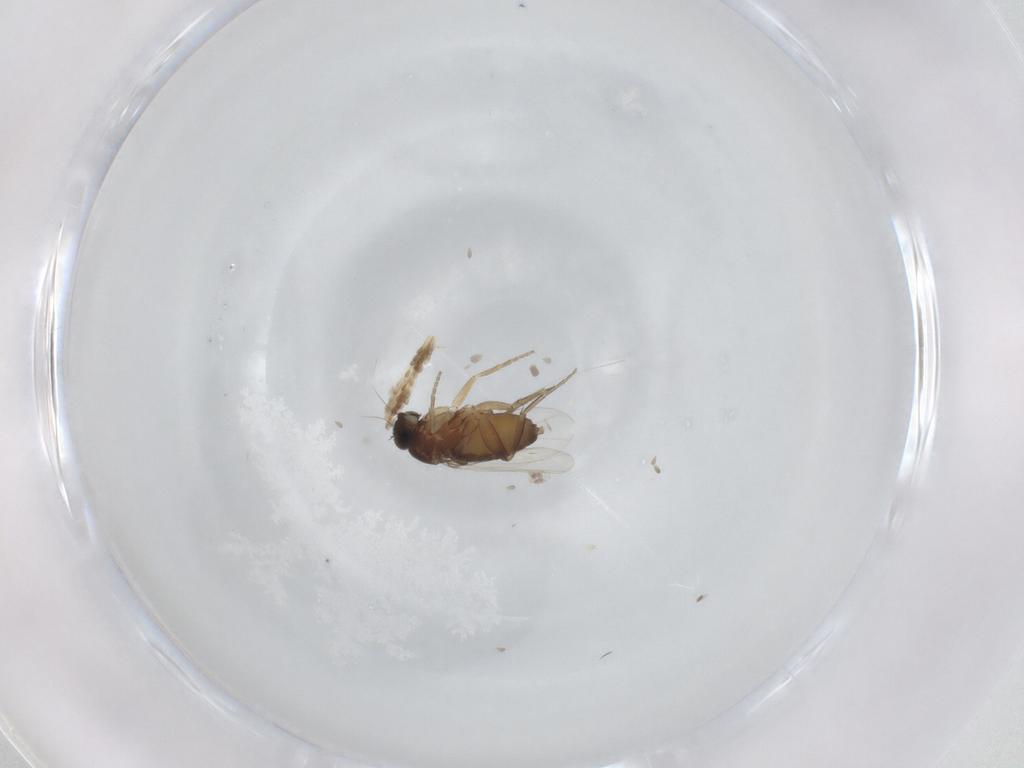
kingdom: Animalia
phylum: Arthropoda
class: Insecta
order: Diptera
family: Phoridae
